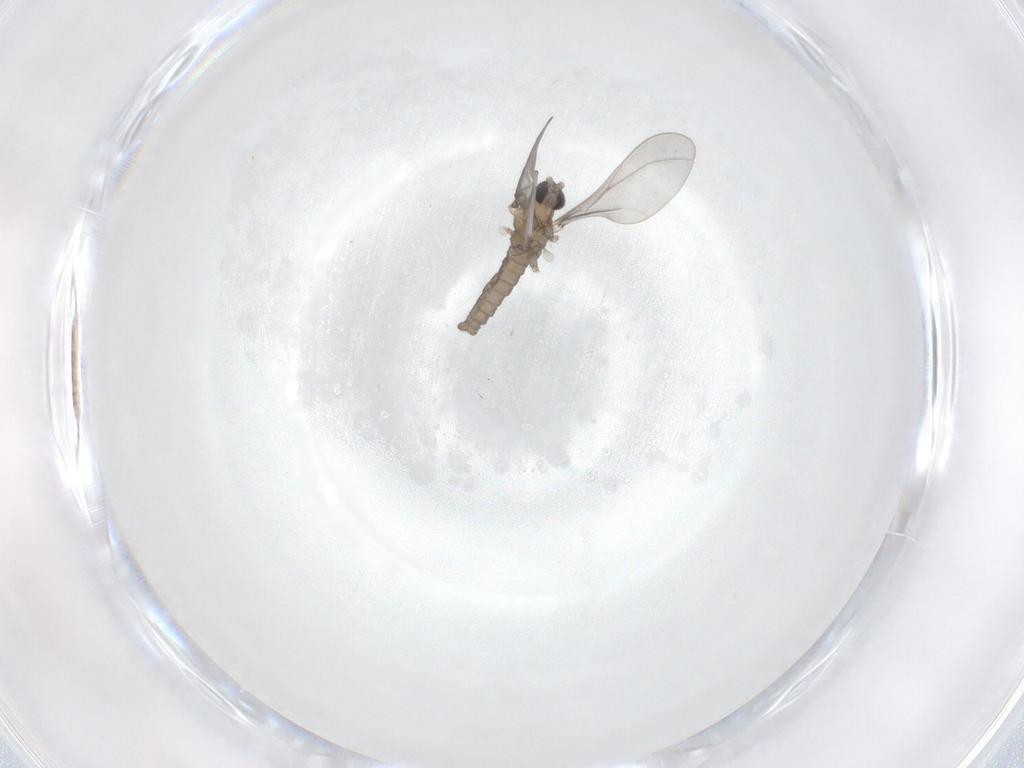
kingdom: Animalia
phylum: Arthropoda
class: Insecta
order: Diptera
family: Cecidomyiidae
